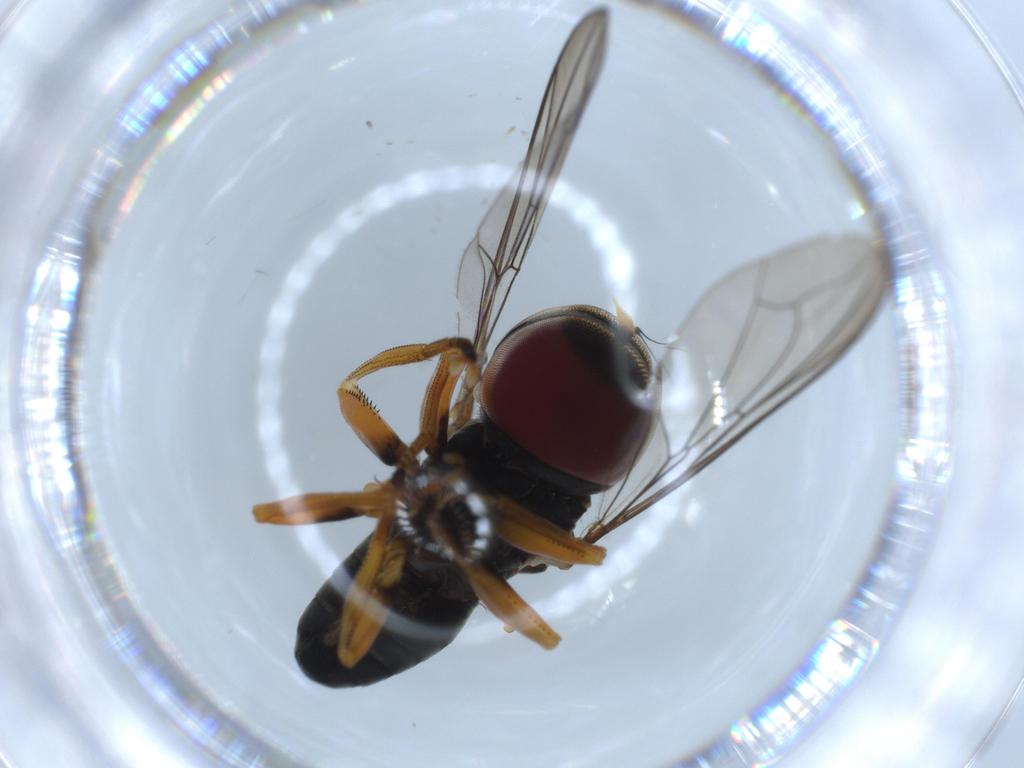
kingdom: Animalia
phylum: Arthropoda
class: Insecta
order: Diptera
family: Pipunculidae
